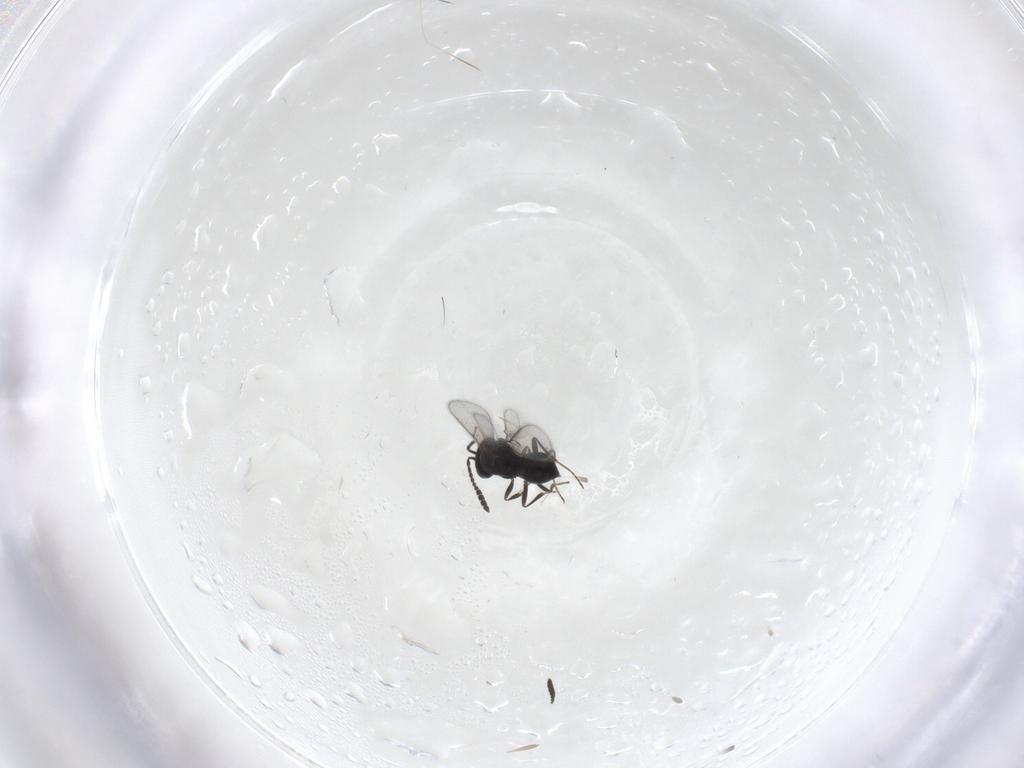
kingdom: Animalia
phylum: Arthropoda
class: Insecta
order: Hymenoptera
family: Scelionidae
